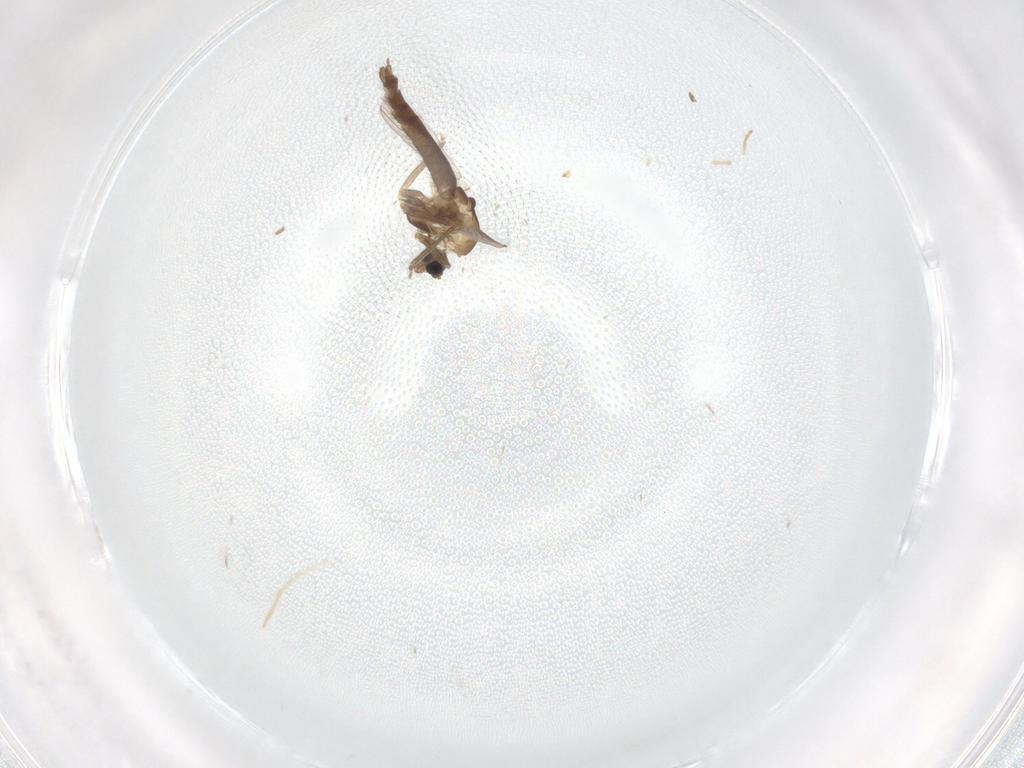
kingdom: Animalia
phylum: Arthropoda
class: Insecta
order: Diptera
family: Chironomidae
